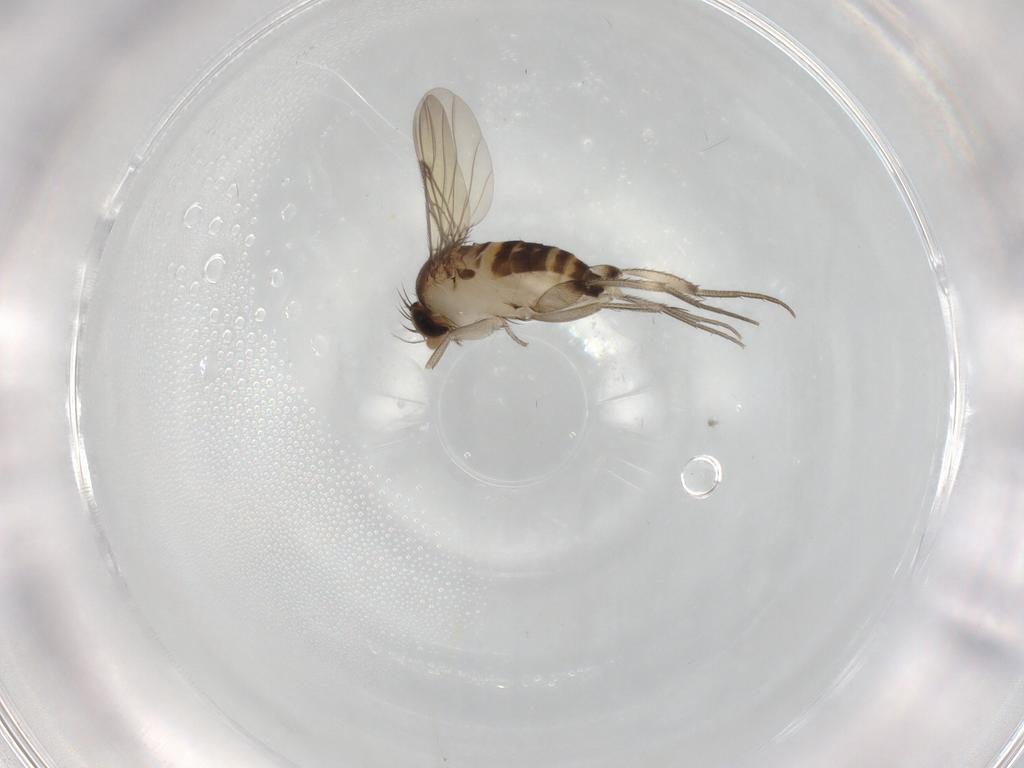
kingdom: Animalia
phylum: Arthropoda
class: Insecta
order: Diptera
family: Phoridae
